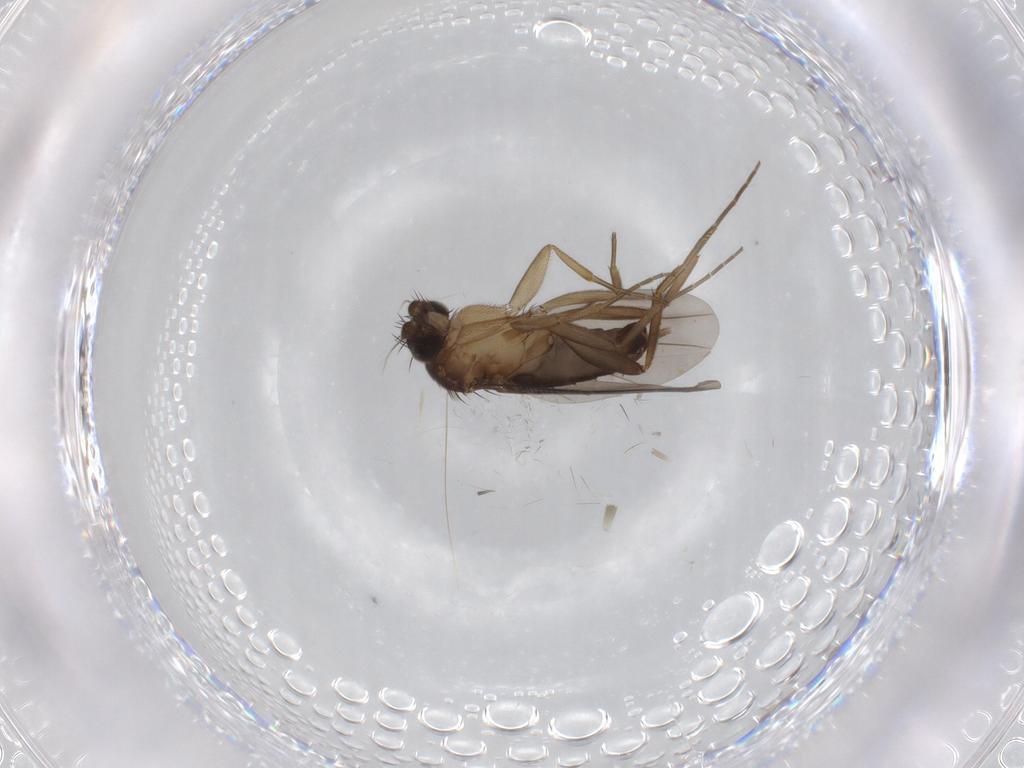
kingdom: Animalia
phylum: Arthropoda
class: Insecta
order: Diptera
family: Phoridae
